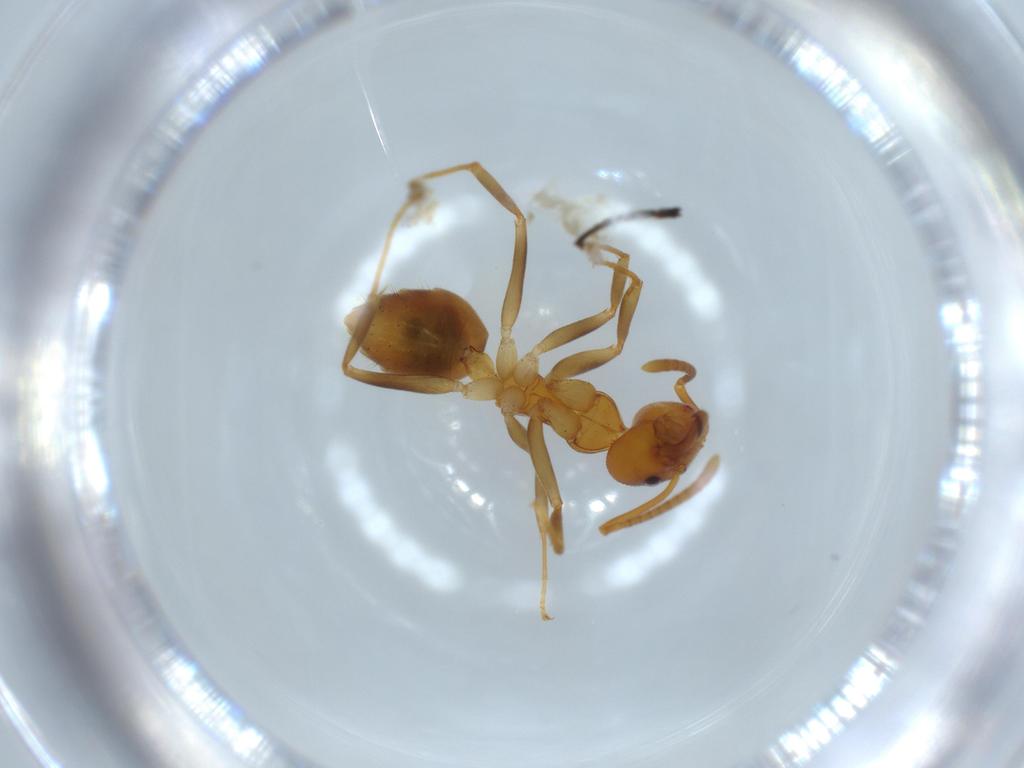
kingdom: Animalia
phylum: Arthropoda
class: Insecta
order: Hymenoptera
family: Formicidae
